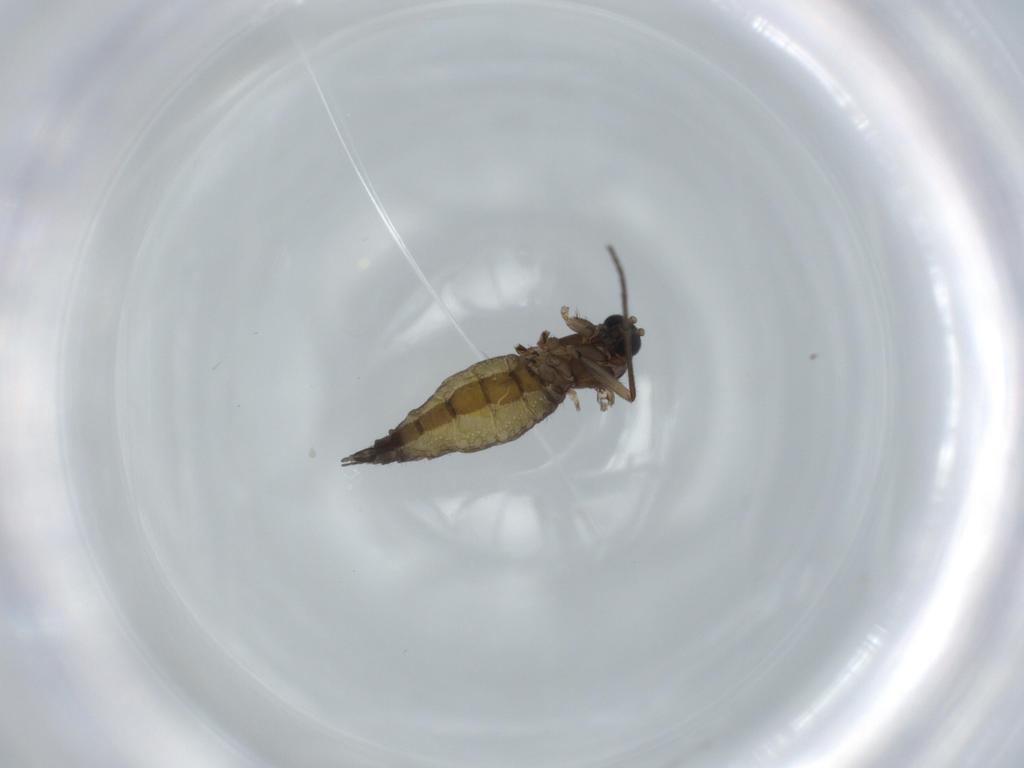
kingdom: Animalia
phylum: Arthropoda
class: Insecta
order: Diptera
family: Sciaridae
